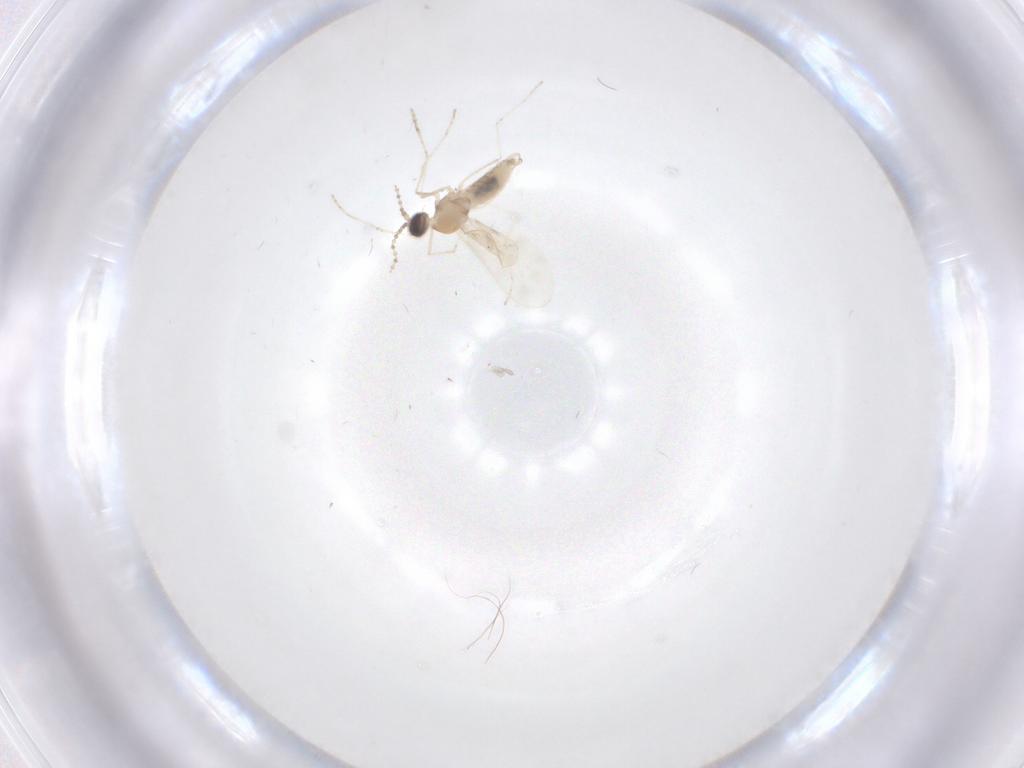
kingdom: Animalia
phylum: Arthropoda
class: Insecta
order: Diptera
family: Cecidomyiidae
